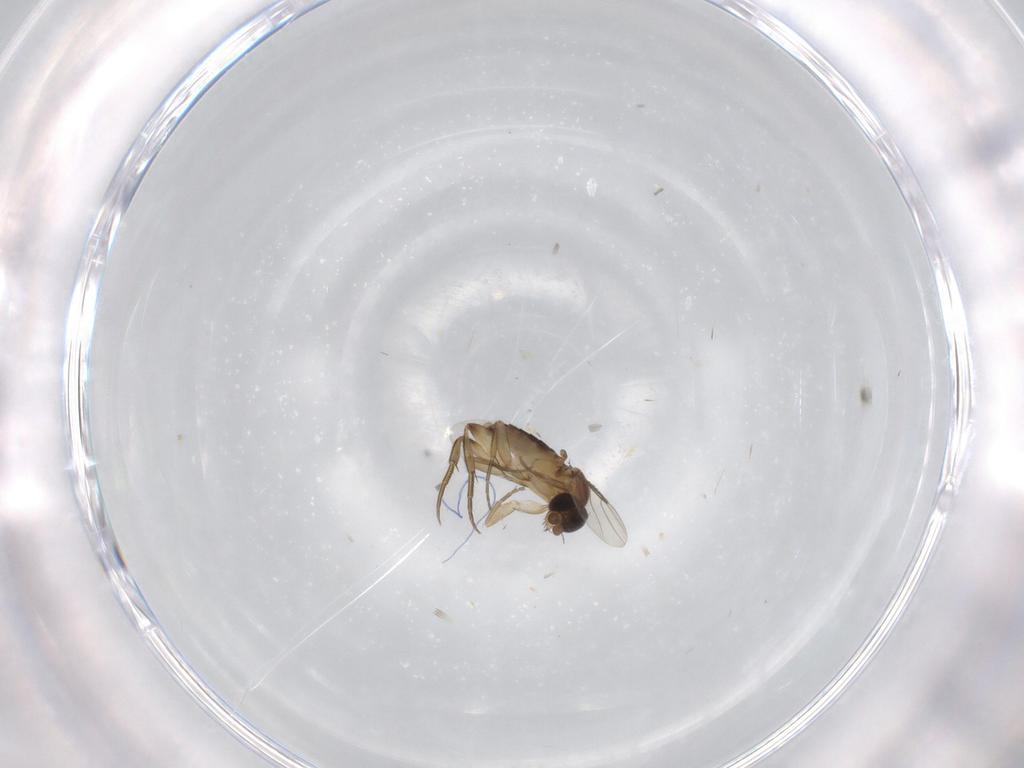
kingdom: Animalia
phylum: Arthropoda
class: Insecta
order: Diptera
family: Phoridae
